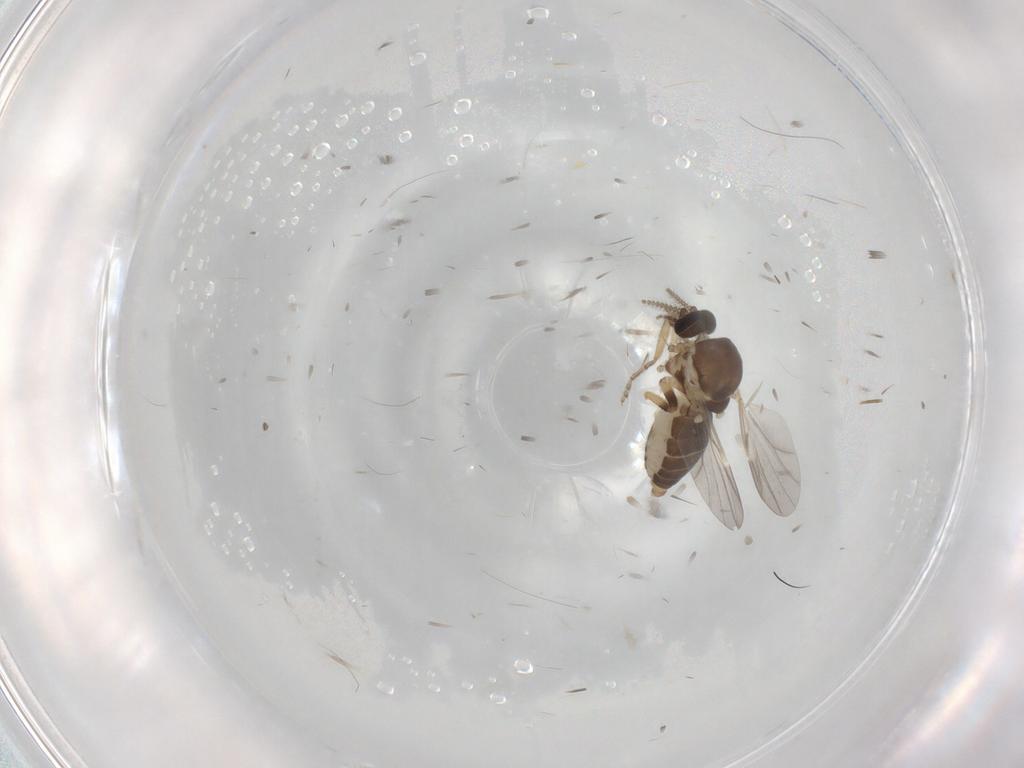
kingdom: Animalia
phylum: Arthropoda
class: Insecta
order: Diptera
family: Ceratopogonidae
